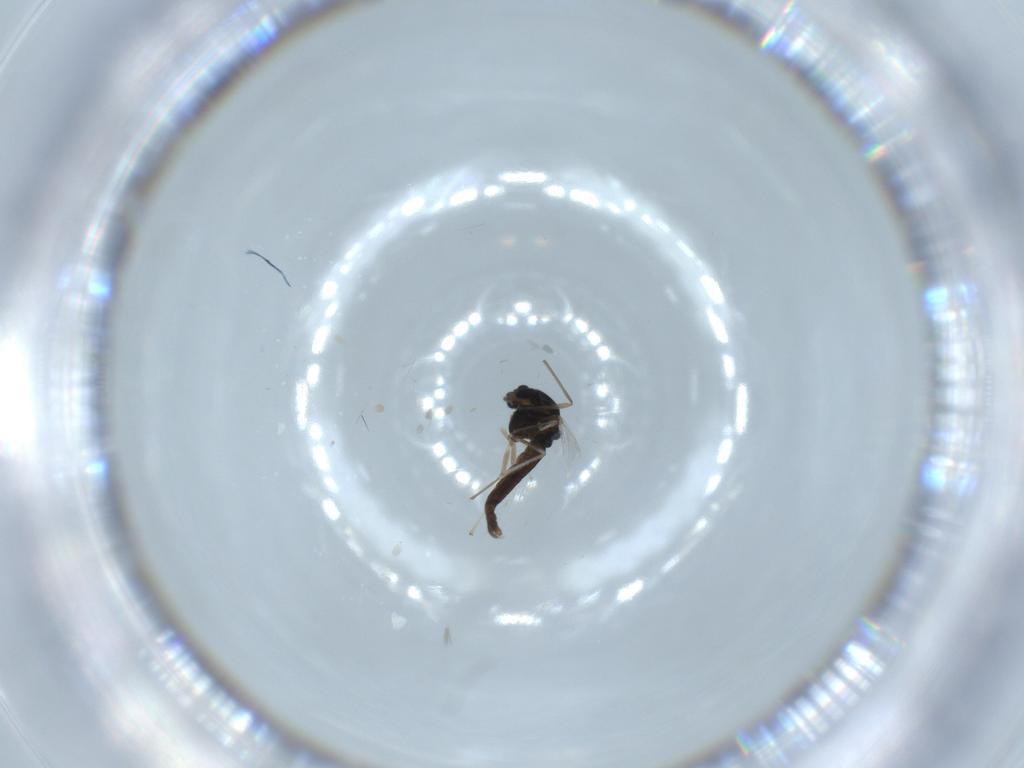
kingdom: Animalia
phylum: Arthropoda
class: Insecta
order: Diptera
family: Chironomidae
